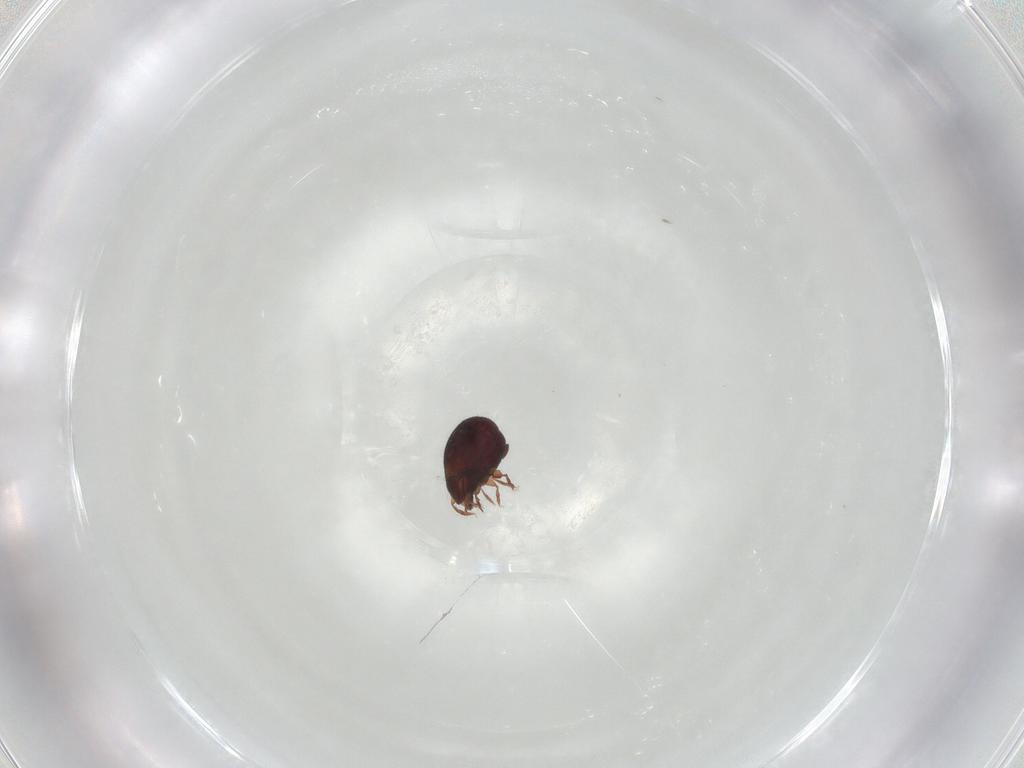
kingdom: Animalia
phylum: Arthropoda
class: Arachnida
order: Sarcoptiformes
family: Humerobatidae
